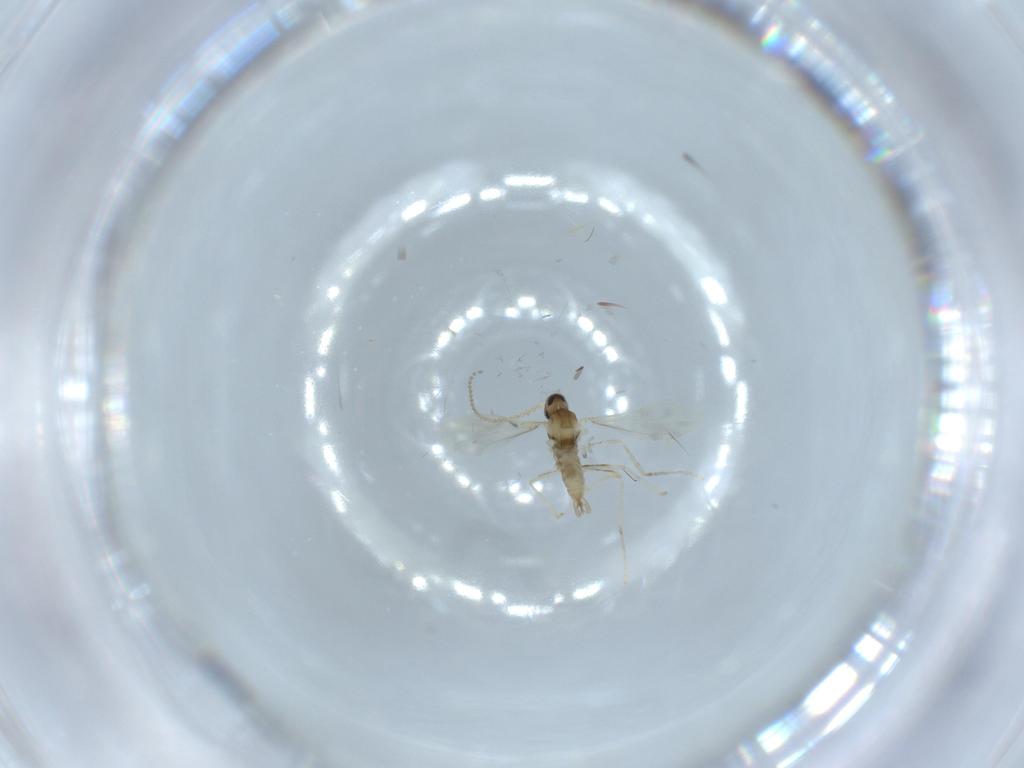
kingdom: Animalia
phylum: Arthropoda
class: Insecta
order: Diptera
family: Cecidomyiidae
